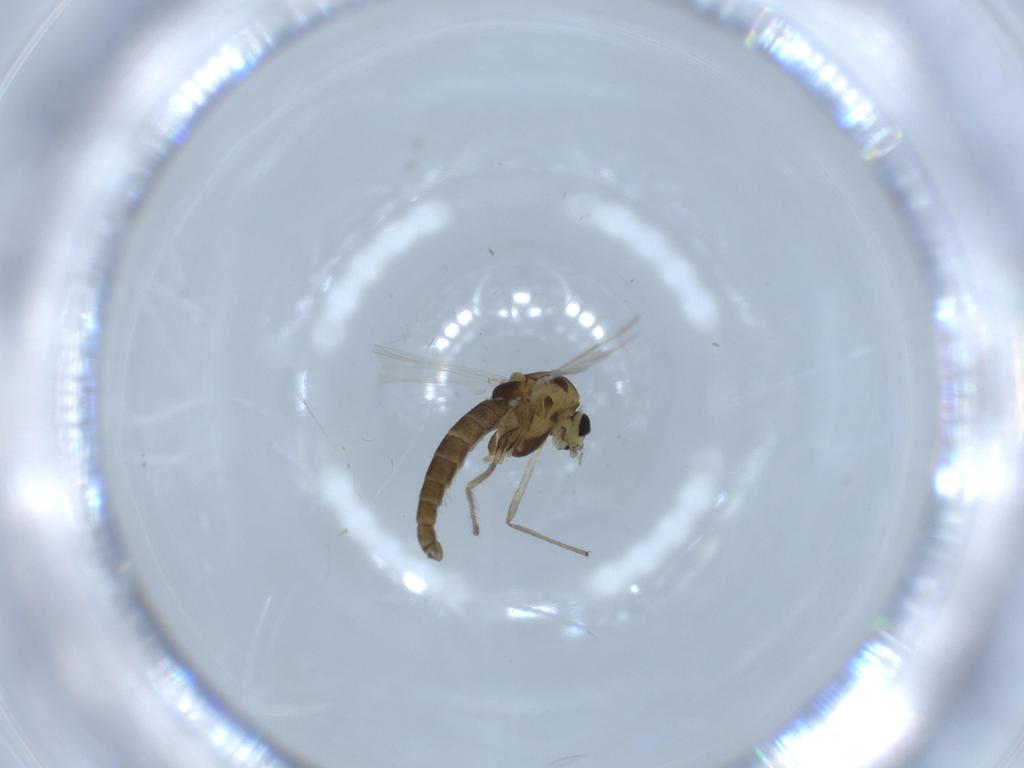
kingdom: Animalia
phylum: Arthropoda
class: Insecta
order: Diptera
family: Chironomidae
